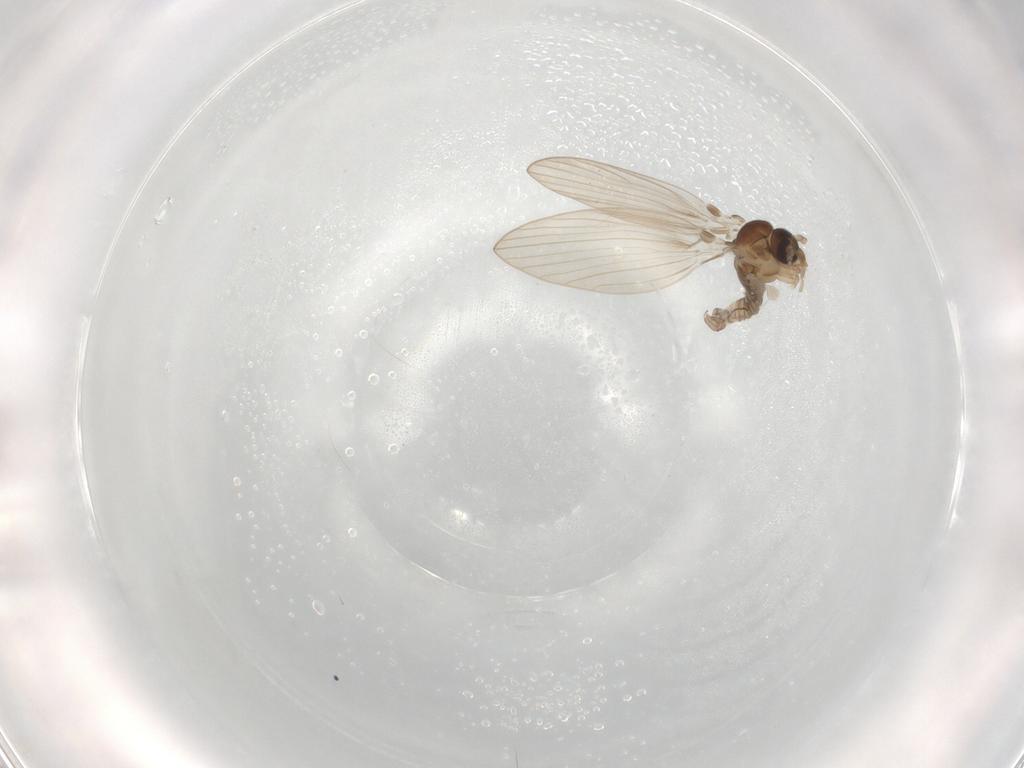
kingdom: Animalia
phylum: Arthropoda
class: Insecta
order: Diptera
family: Psychodidae
